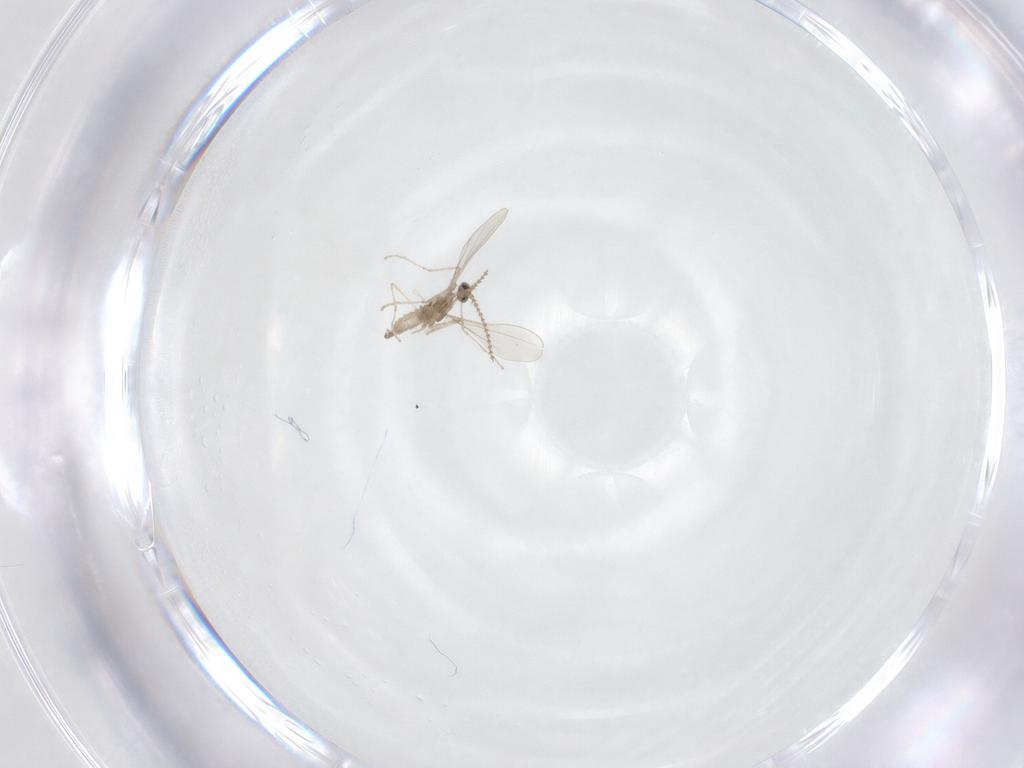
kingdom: Animalia
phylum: Arthropoda
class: Insecta
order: Diptera
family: Cecidomyiidae
